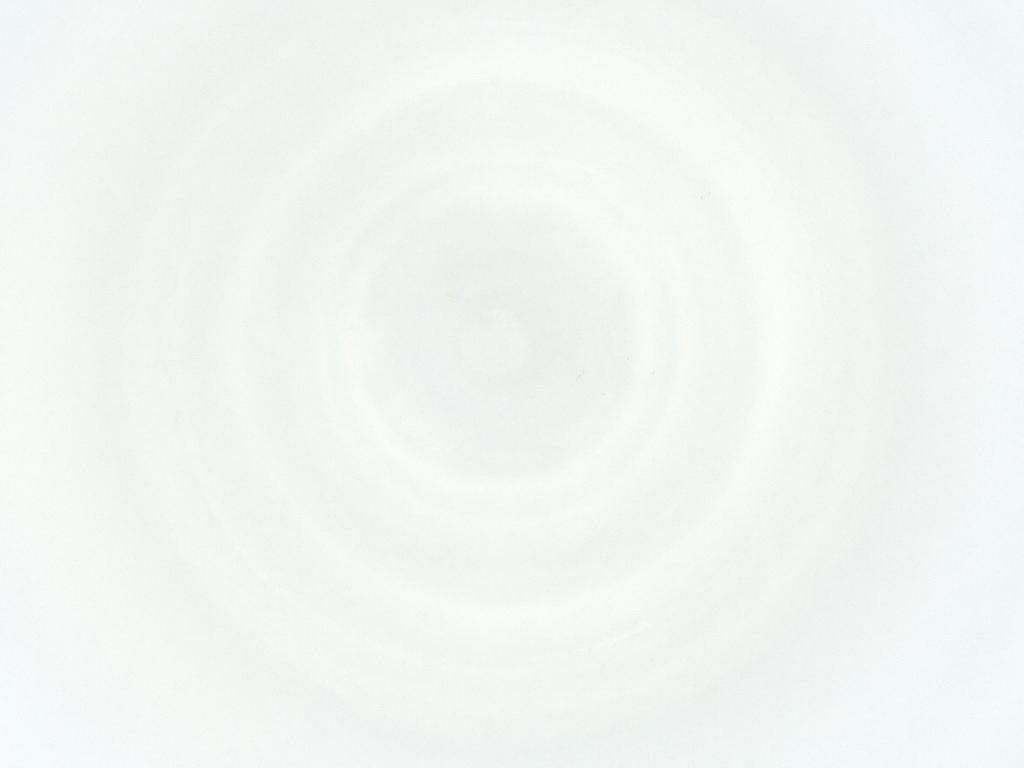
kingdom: Animalia
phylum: Arthropoda
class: Arachnida
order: Mesostigmata
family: Phytoseiidae
